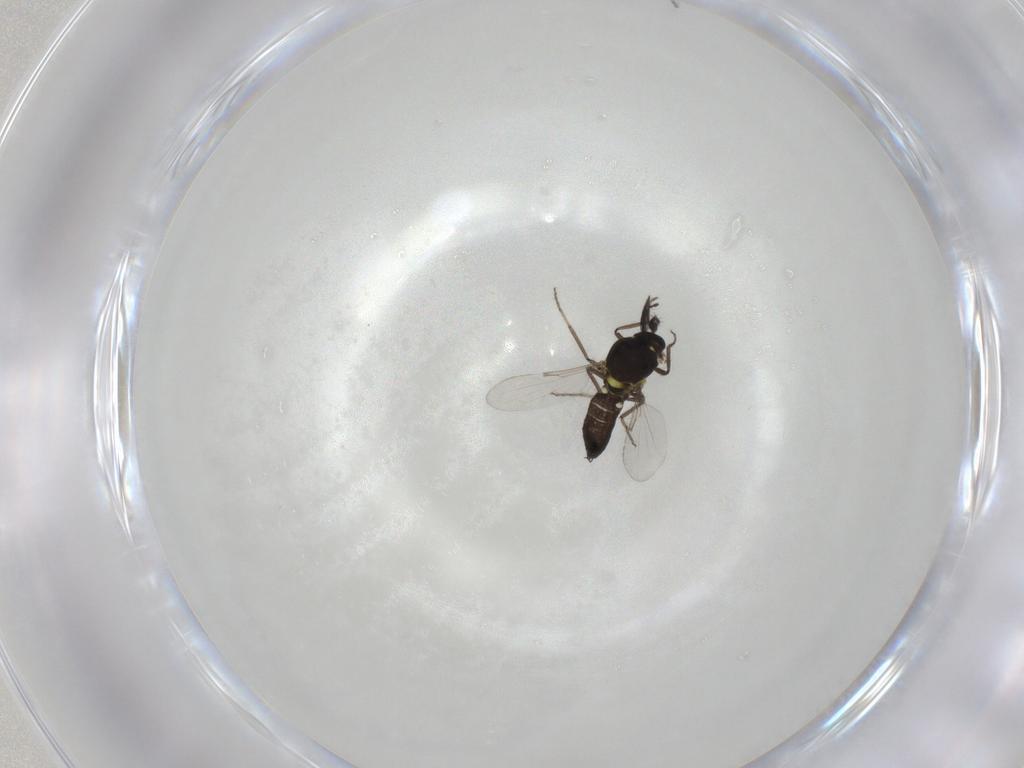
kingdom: Animalia
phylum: Arthropoda
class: Insecta
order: Diptera
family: Ceratopogonidae
